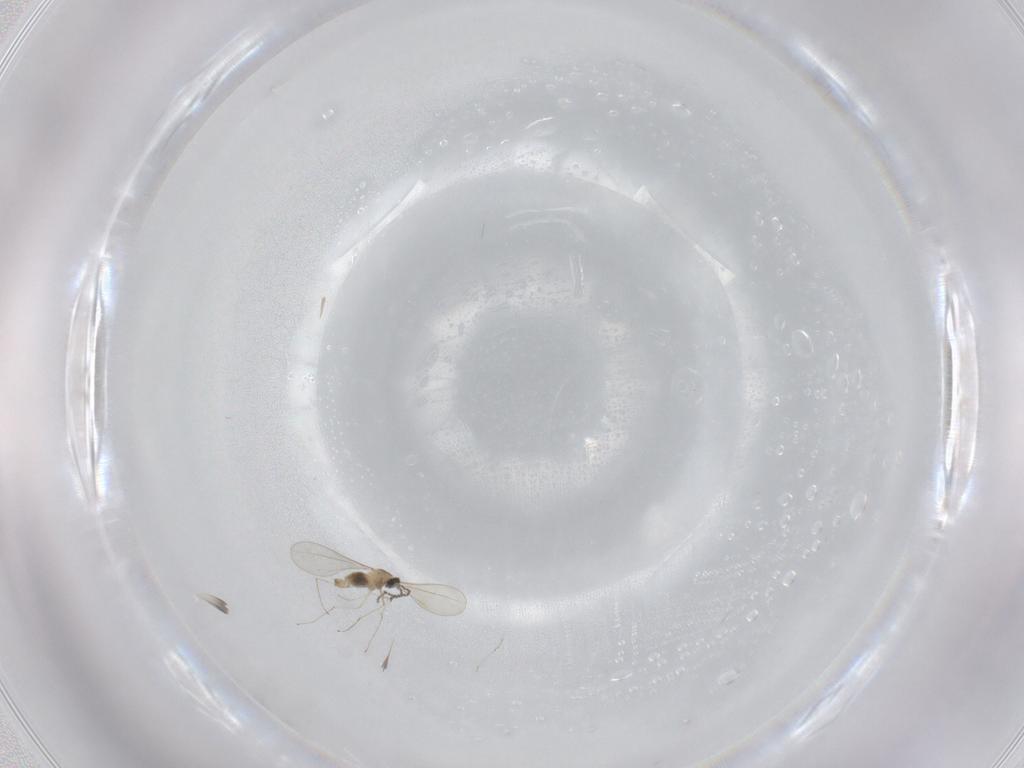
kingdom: Animalia
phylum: Arthropoda
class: Insecta
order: Diptera
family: Cecidomyiidae
